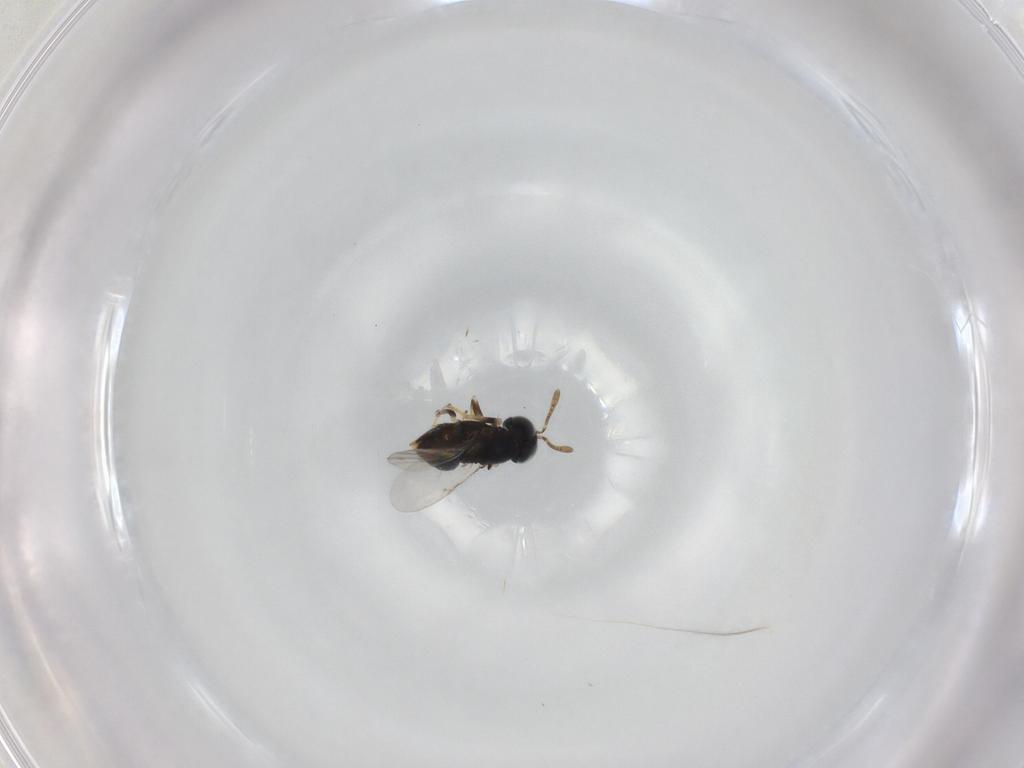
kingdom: Animalia
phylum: Arthropoda
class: Insecta
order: Hymenoptera
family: Encyrtidae
